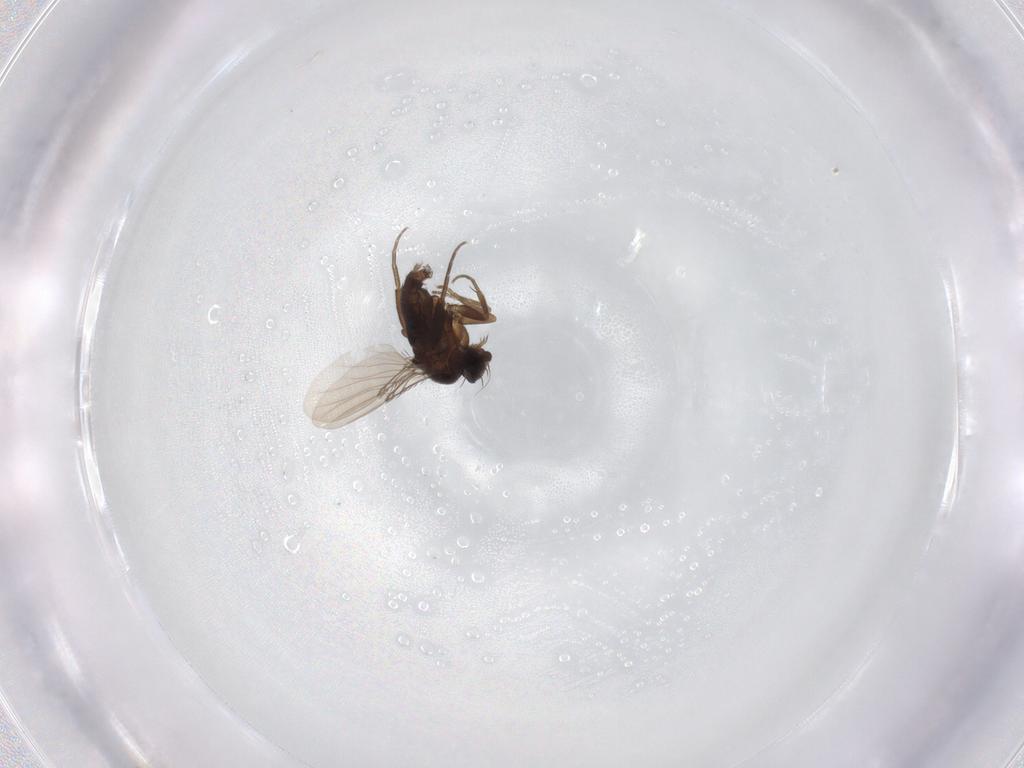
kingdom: Animalia
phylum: Arthropoda
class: Insecta
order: Diptera
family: Phoridae
